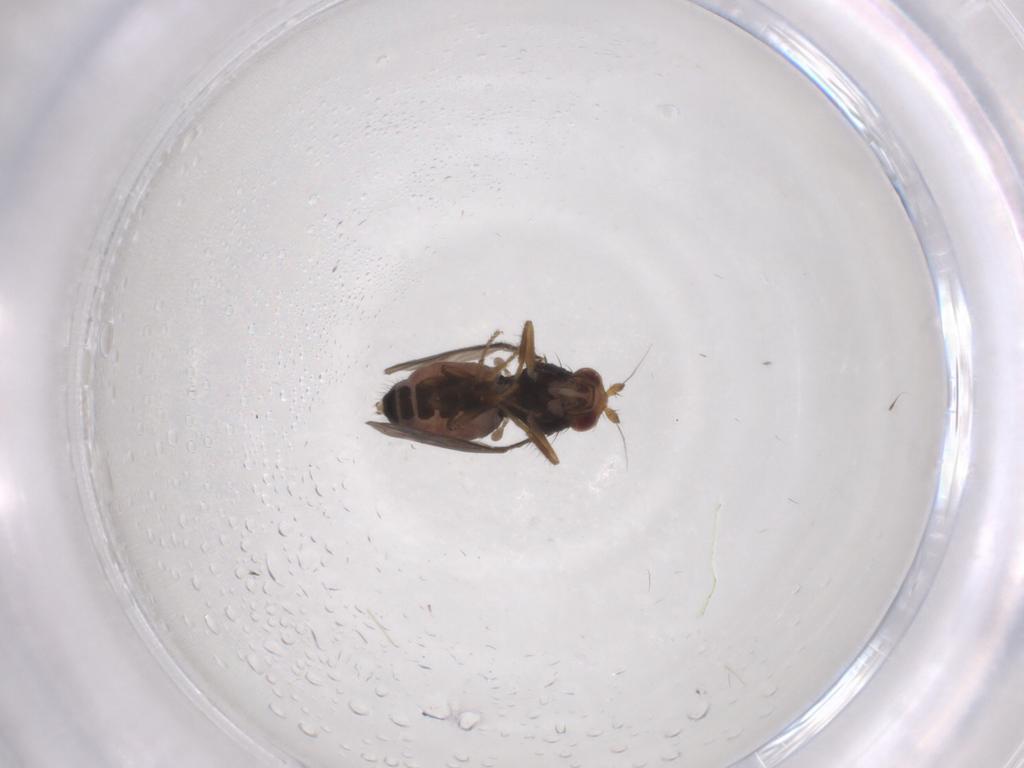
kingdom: Animalia
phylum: Arthropoda
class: Insecta
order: Diptera
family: Sphaeroceridae
